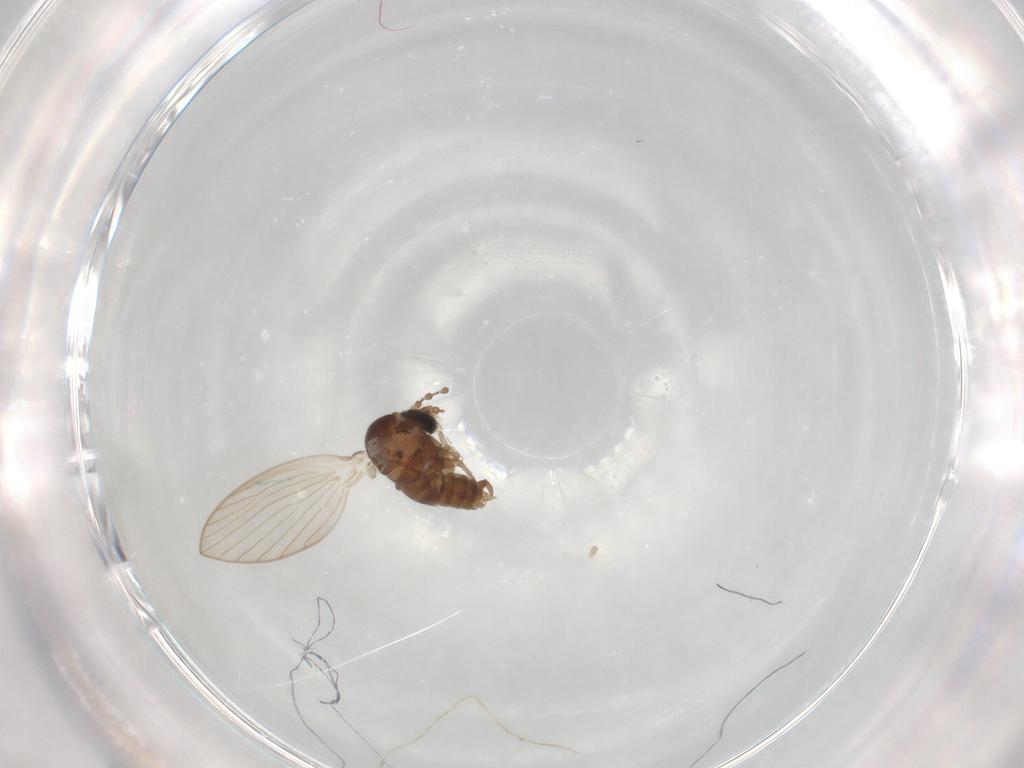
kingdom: Animalia
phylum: Arthropoda
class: Insecta
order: Diptera
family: Psychodidae
